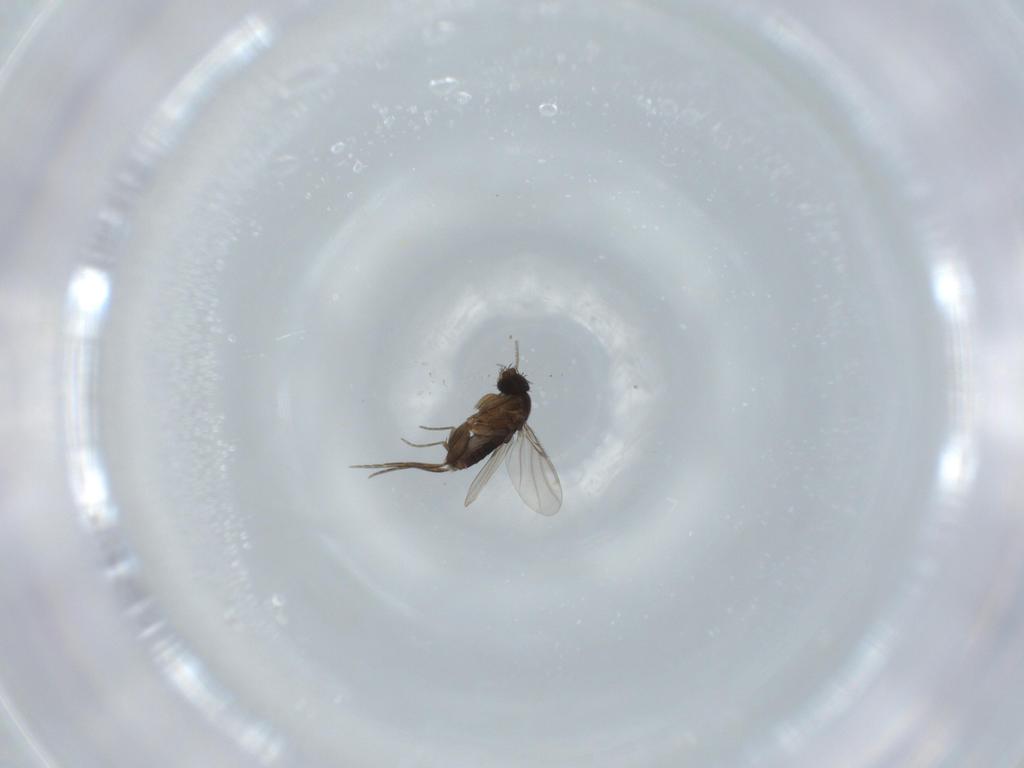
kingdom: Animalia
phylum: Arthropoda
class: Insecta
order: Diptera
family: Phoridae
